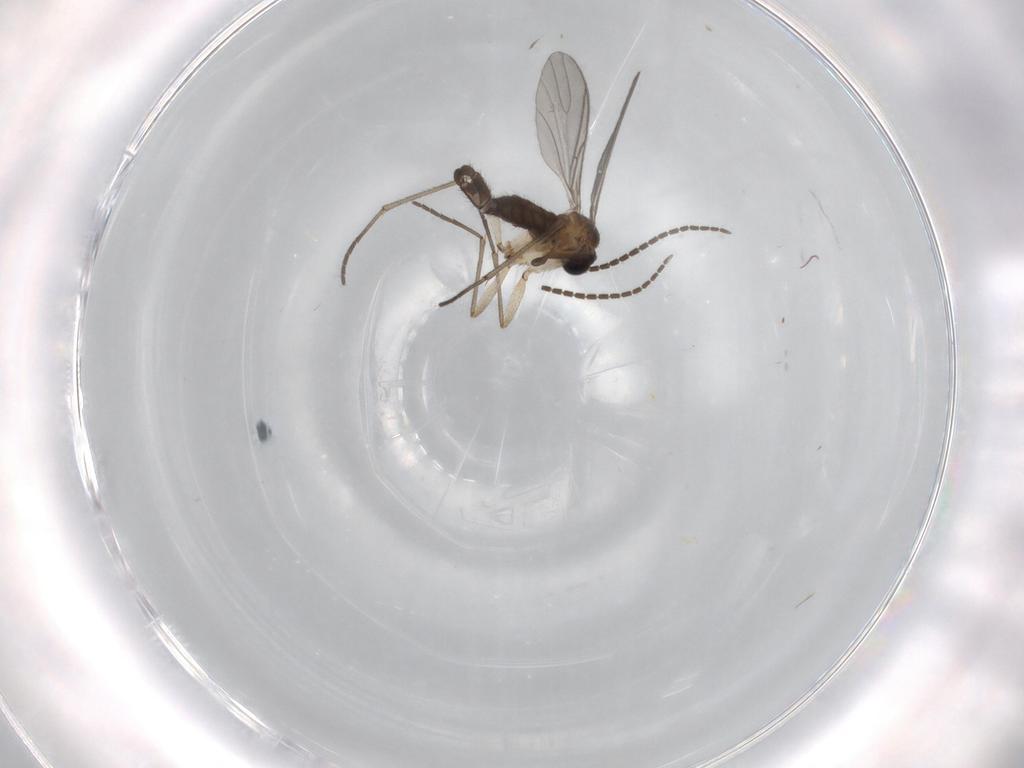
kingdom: Animalia
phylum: Arthropoda
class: Insecta
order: Diptera
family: Sciaridae
